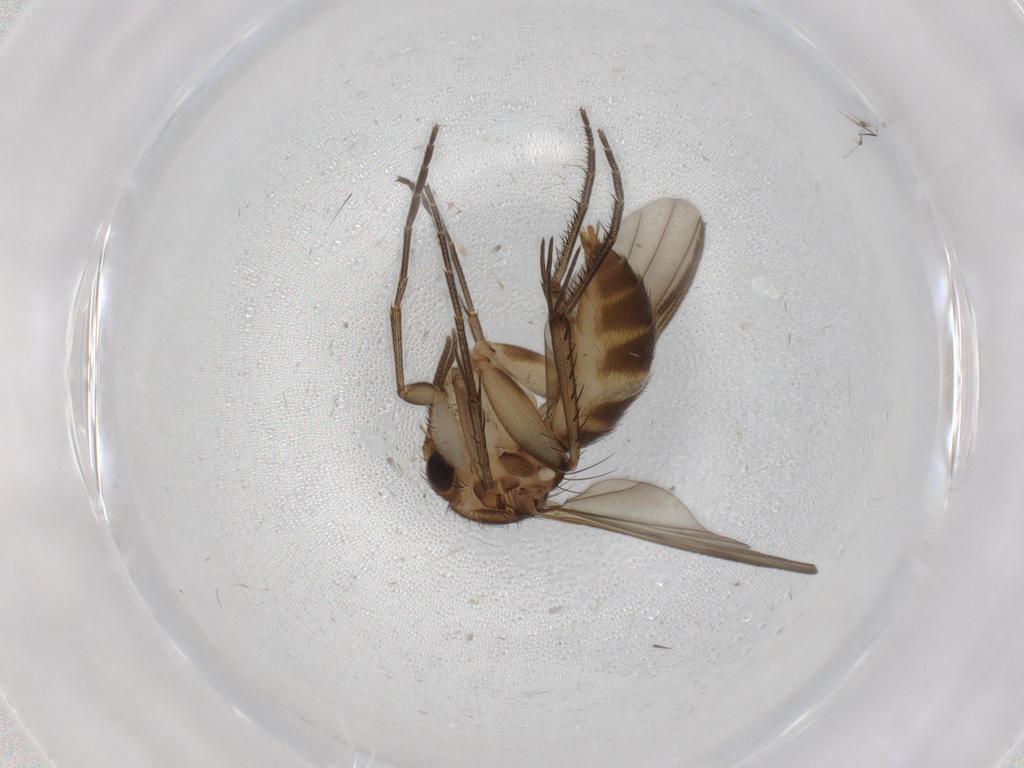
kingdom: Animalia
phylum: Arthropoda
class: Insecta
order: Diptera
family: Mycetophilidae
